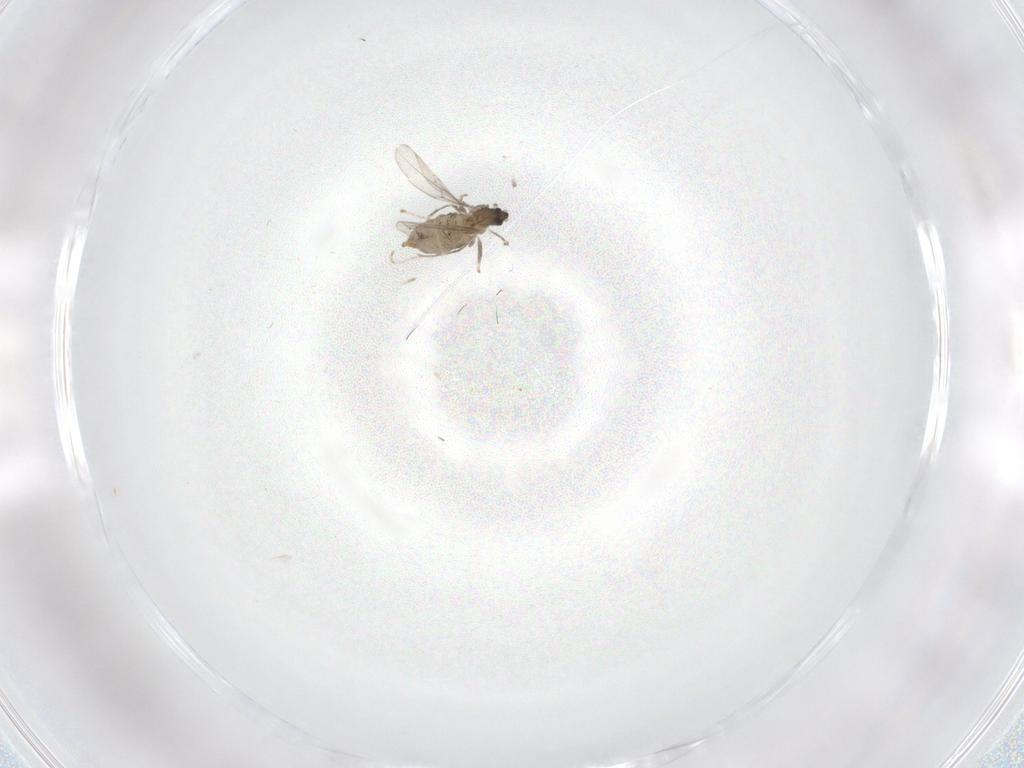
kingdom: Animalia
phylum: Arthropoda
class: Insecta
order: Diptera
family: Cecidomyiidae
